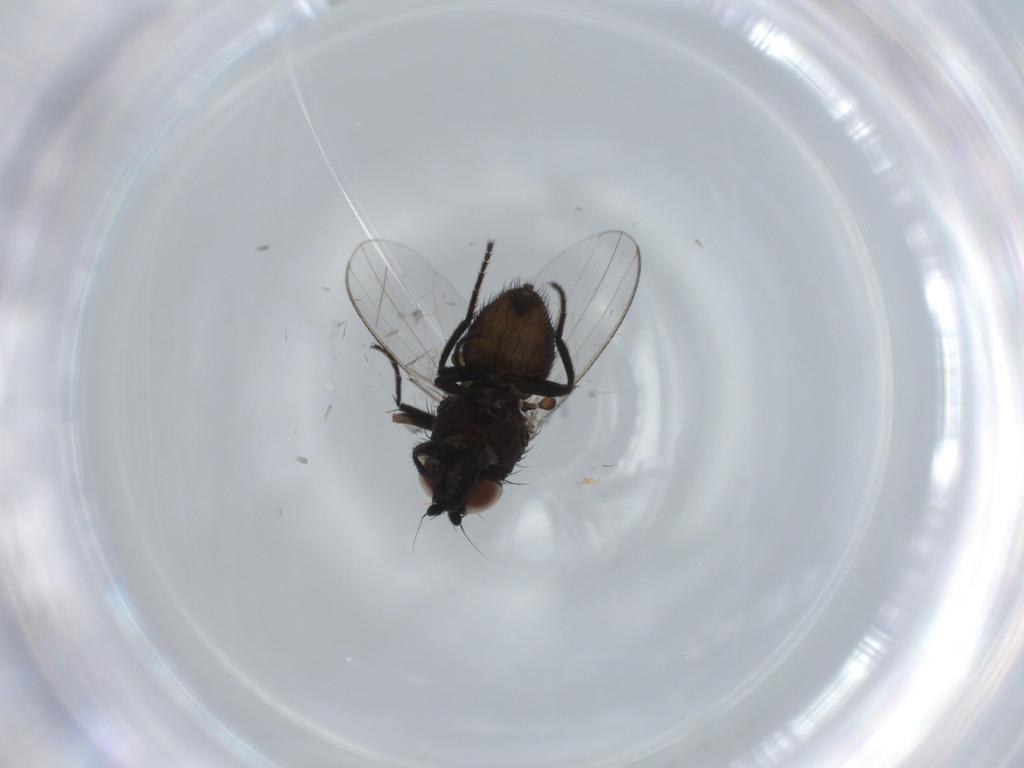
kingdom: Animalia
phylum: Arthropoda
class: Insecta
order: Diptera
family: Milichiidae
